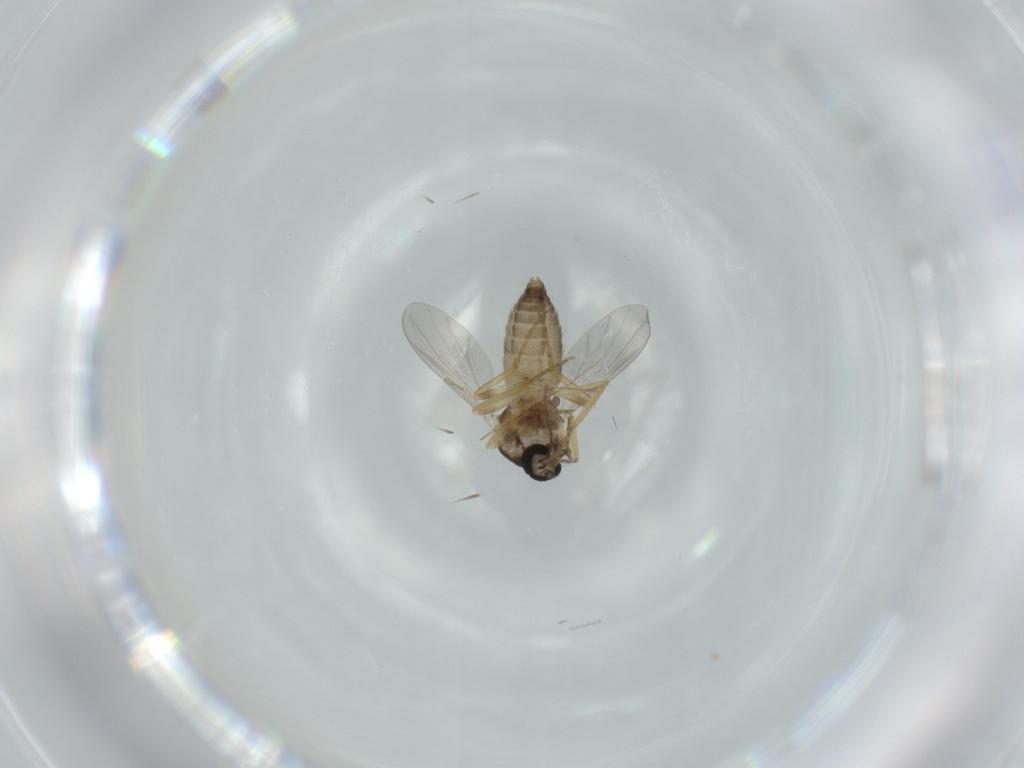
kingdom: Animalia
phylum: Arthropoda
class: Insecta
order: Diptera
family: Ceratopogonidae
